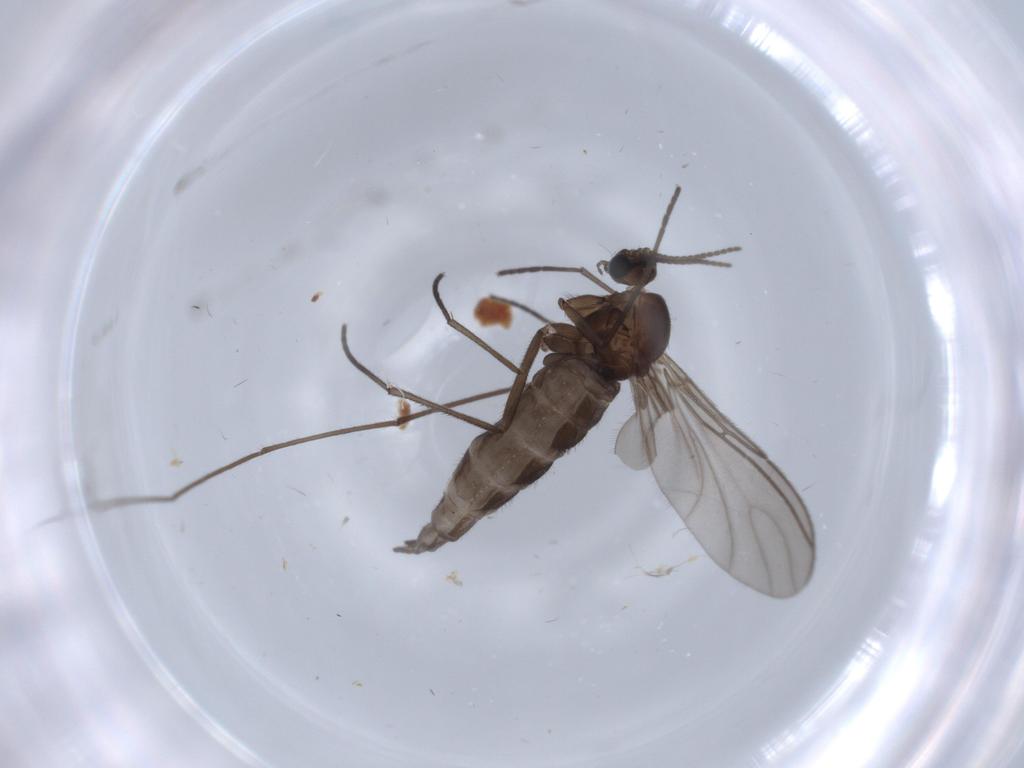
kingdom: Animalia
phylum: Arthropoda
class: Insecta
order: Diptera
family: Sciaridae
